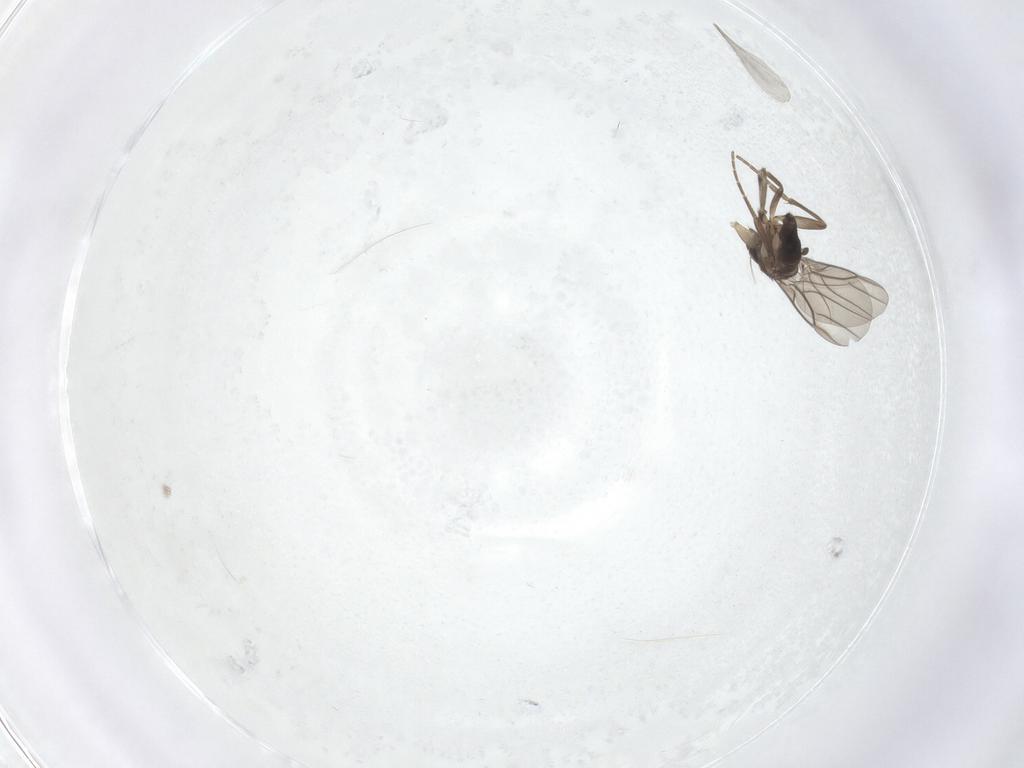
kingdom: Animalia
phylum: Arthropoda
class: Insecta
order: Diptera
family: Phoridae
